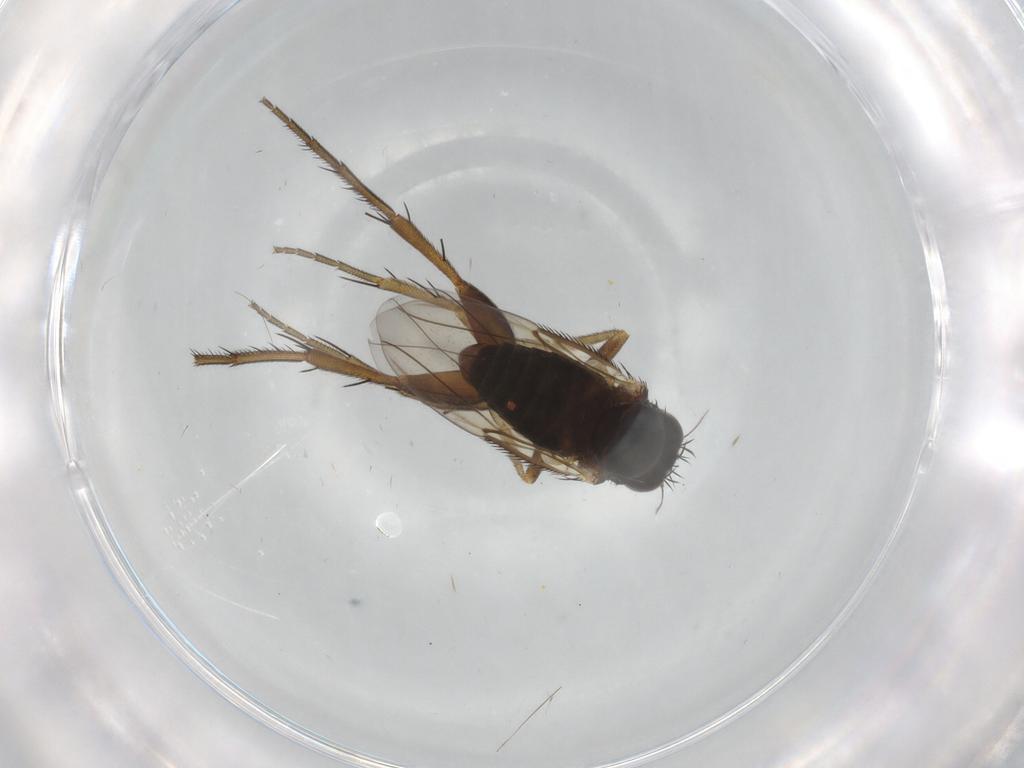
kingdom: Animalia
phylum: Arthropoda
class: Insecta
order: Diptera
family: Phoridae
